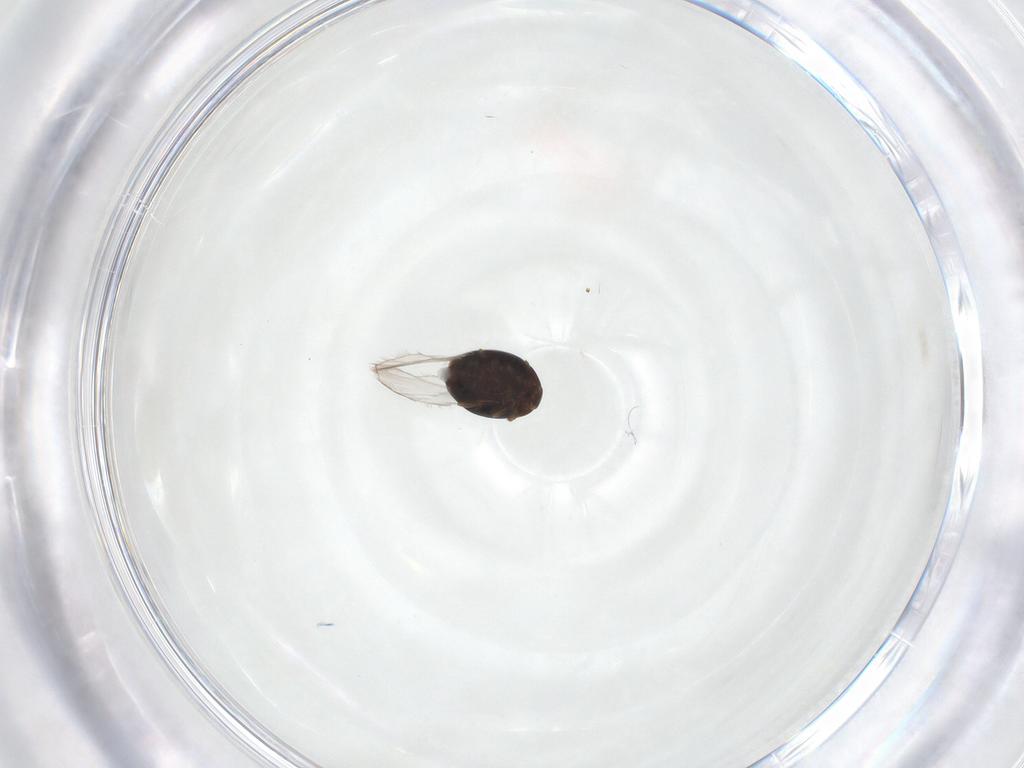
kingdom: Animalia
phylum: Arthropoda
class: Insecta
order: Coleoptera
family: Corylophidae
